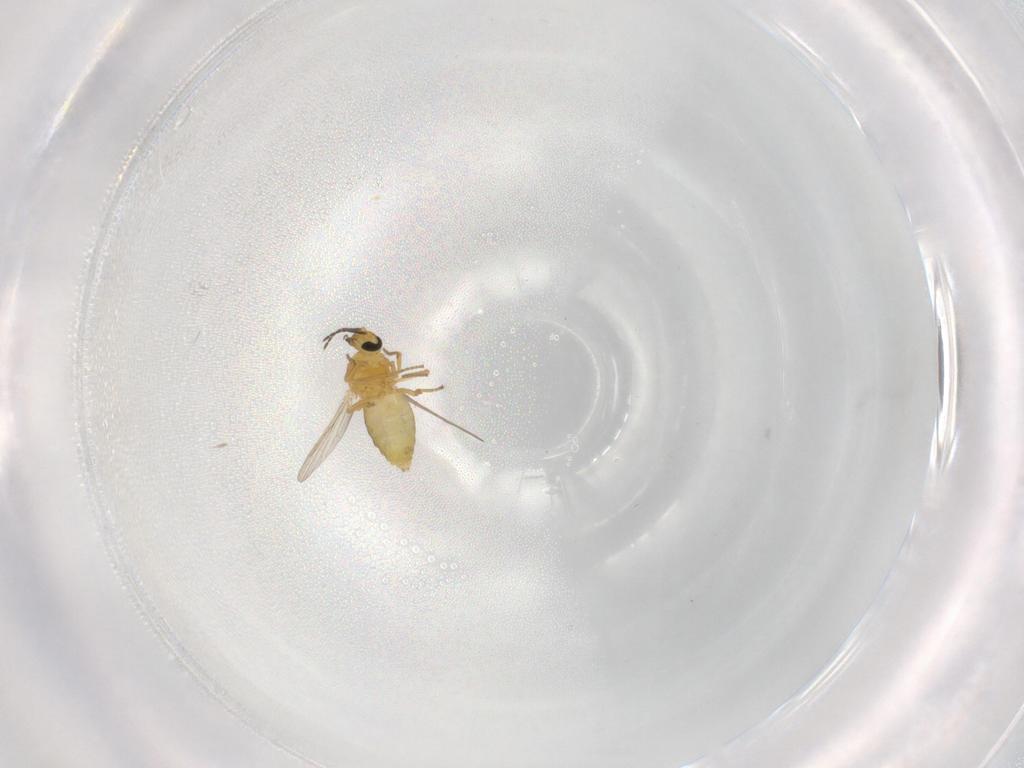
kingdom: Animalia
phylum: Arthropoda
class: Insecta
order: Diptera
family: Ceratopogonidae
